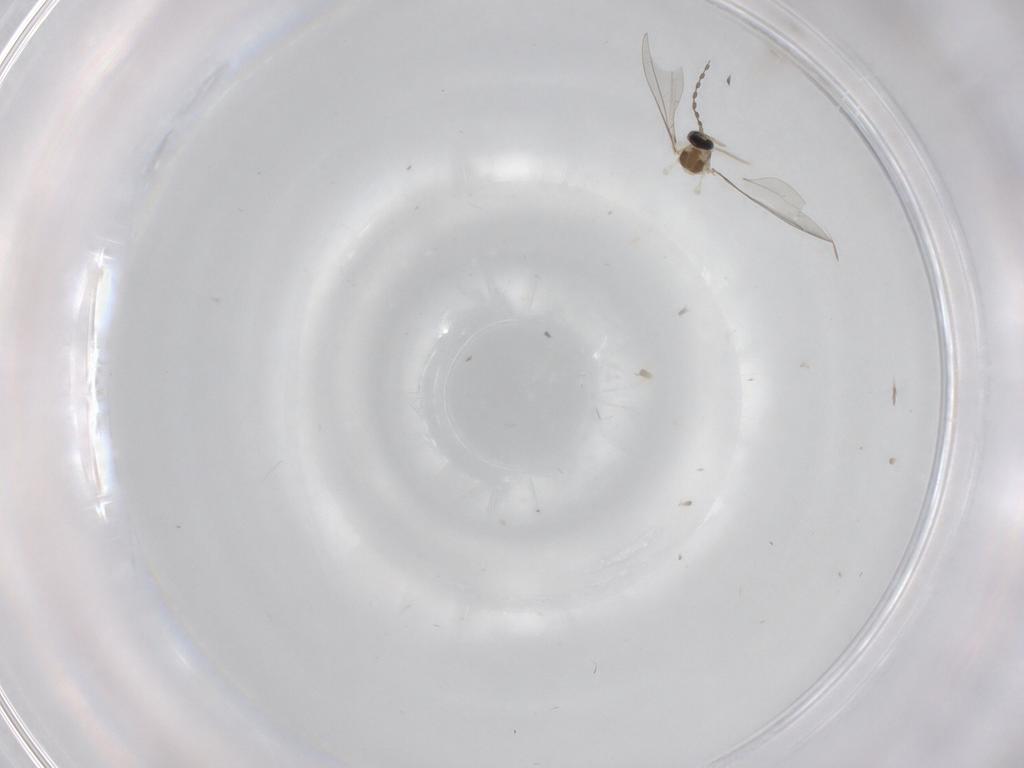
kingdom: Animalia
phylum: Arthropoda
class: Insecta
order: Diptera
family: Cecidomyiidae
